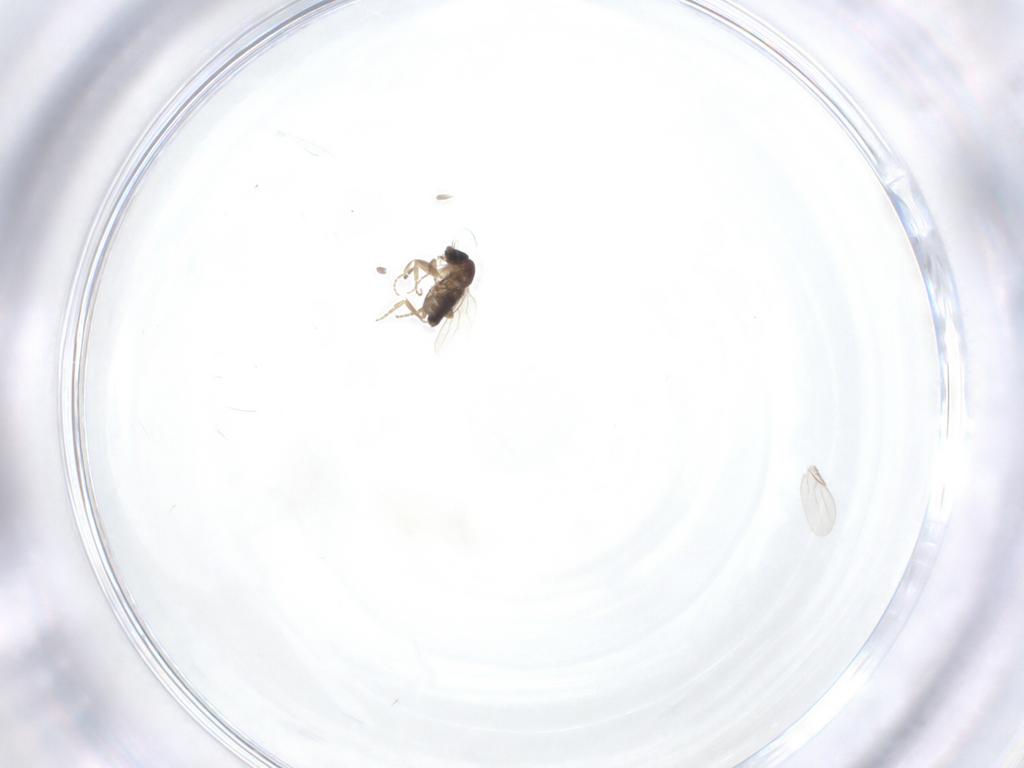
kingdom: Animalia
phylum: Arthropoda
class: Insecta
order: Diptera
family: Phoridae
